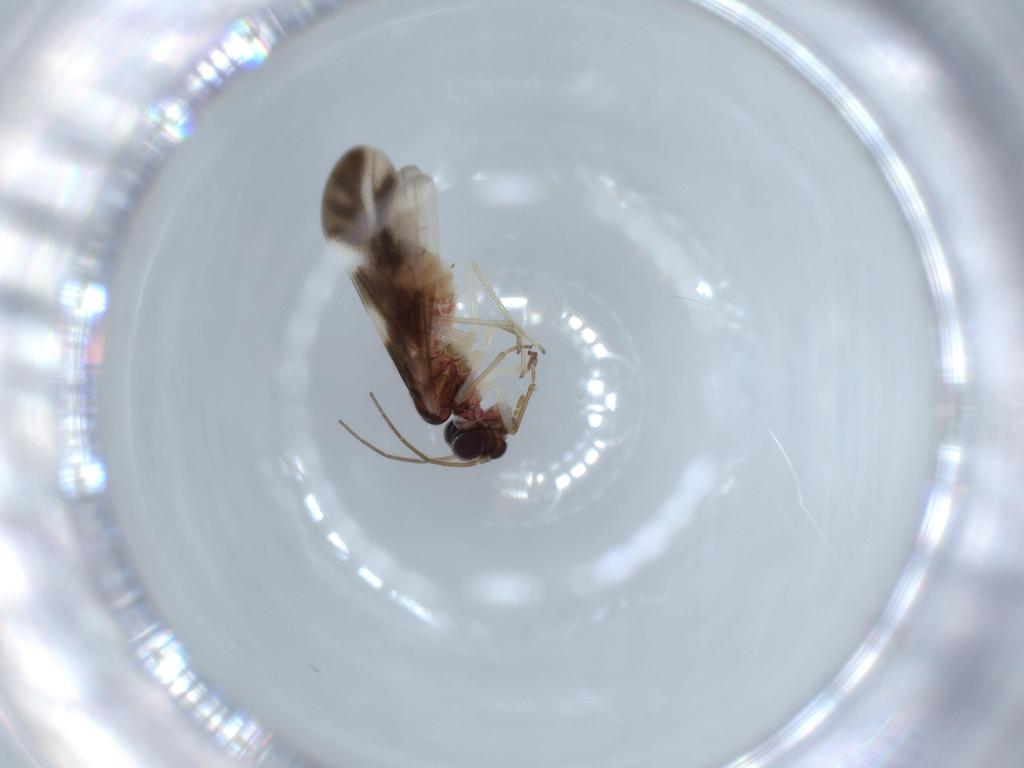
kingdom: Animalia
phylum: Arthropoda
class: Insecta
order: Psocodea
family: Caeciliusidae
